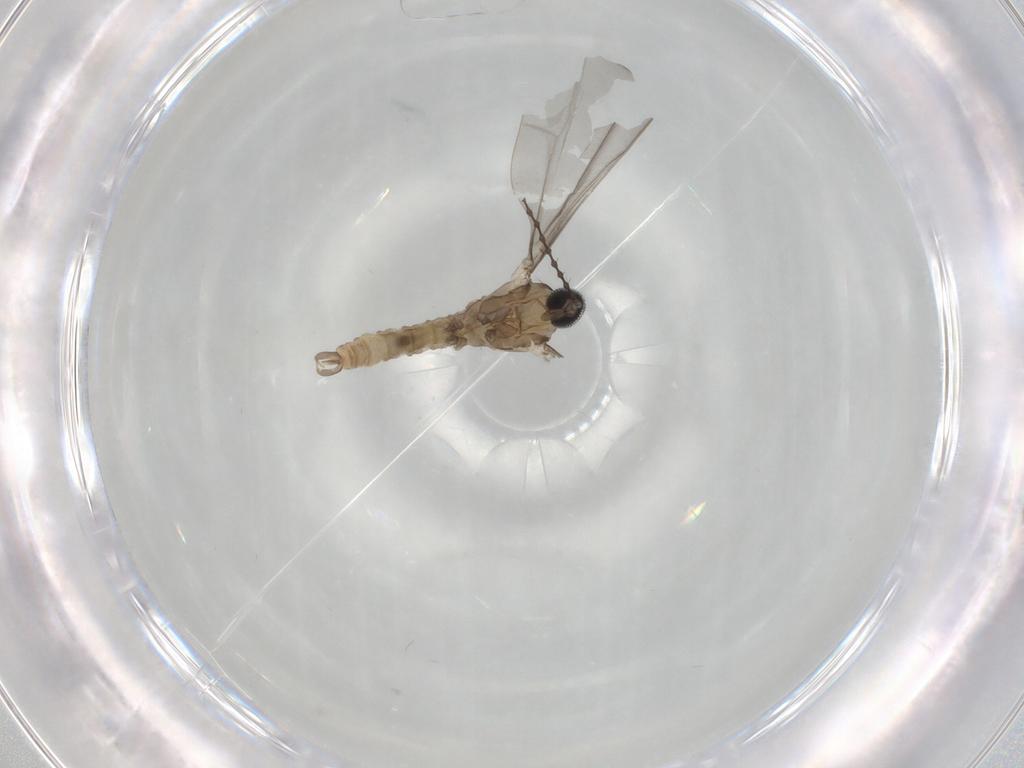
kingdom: Animalia
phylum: Arthropoda
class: Insecta
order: Diptera
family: Cecidomyiidae
